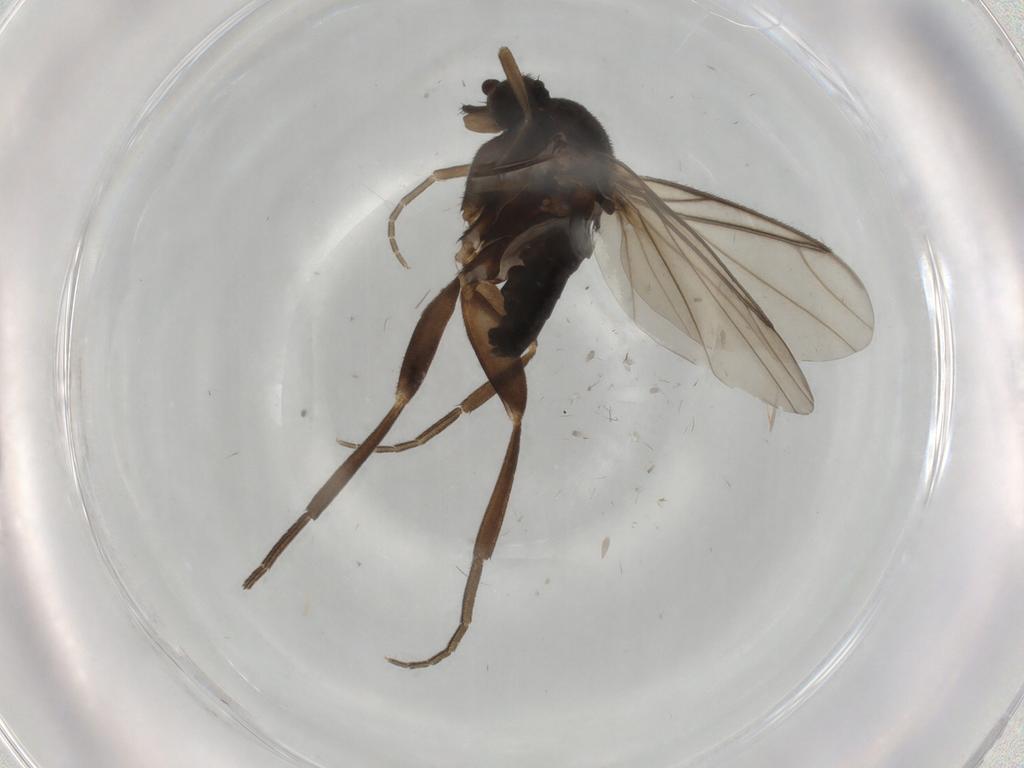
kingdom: Animalia
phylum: Arthropoda
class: Insecta
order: Diptera
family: Phoridae
